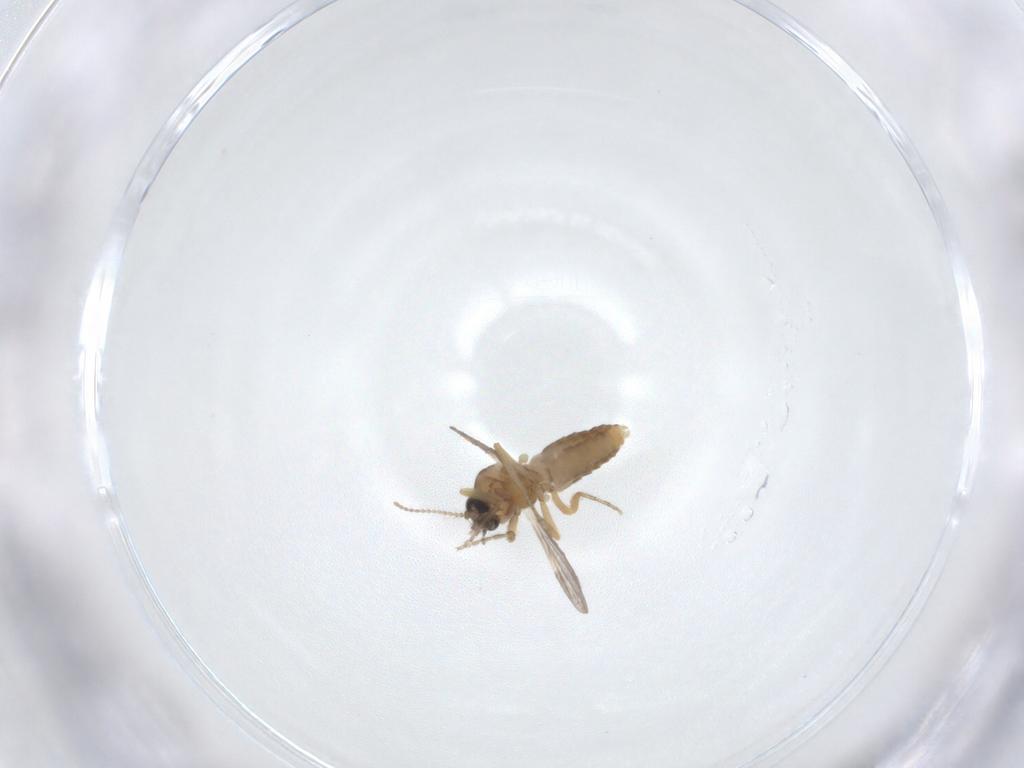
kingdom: Animalia
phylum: Arthropoda
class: Insecta
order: Diptera
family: Ceratopogonidae
